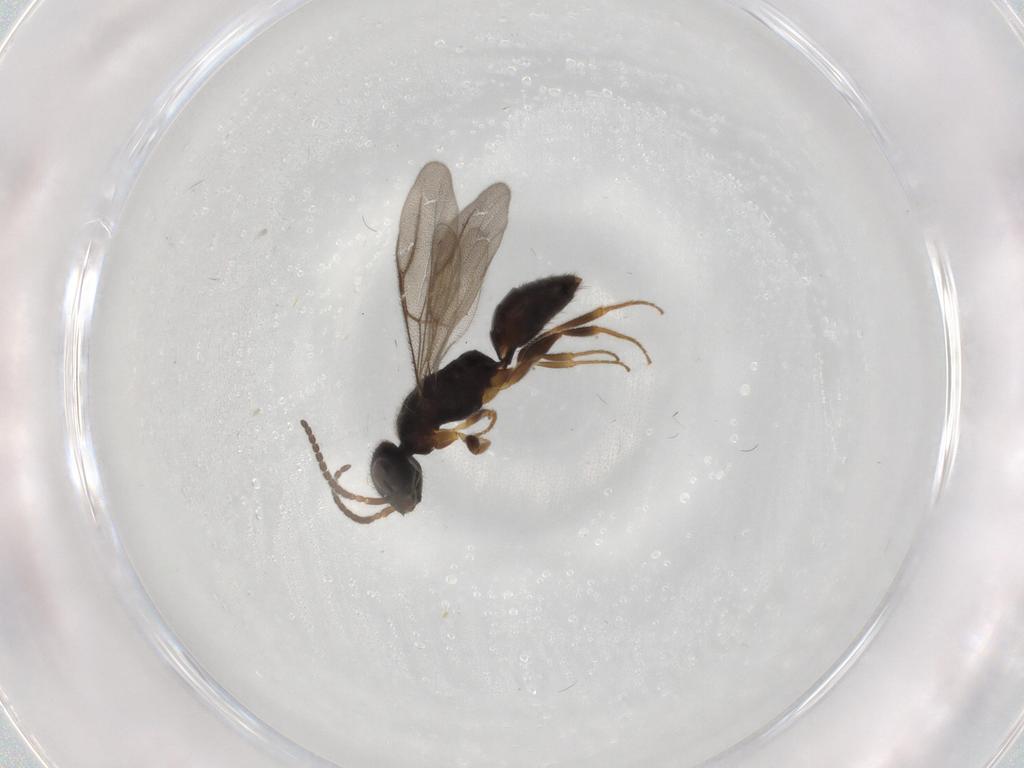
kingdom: Animalia
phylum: Arthropoda
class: Insecta
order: Hymenoptera
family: Bethylidae
